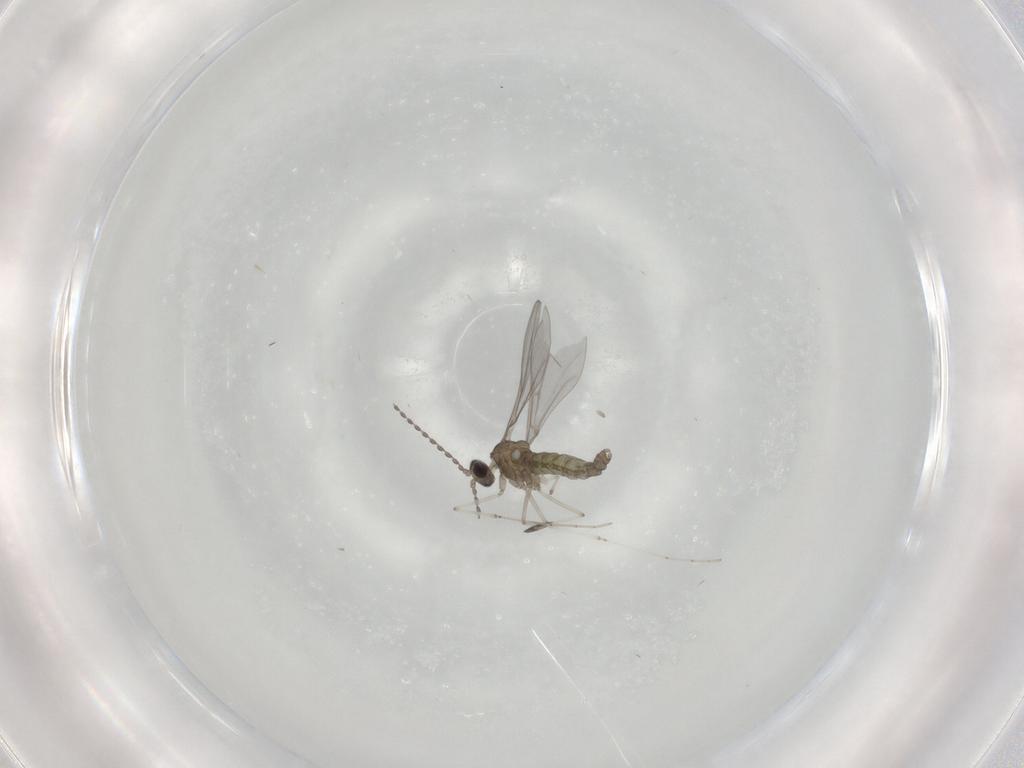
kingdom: Animalia
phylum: Arthropoda
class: Insecta
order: Diptera
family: Cecidomyiidae
